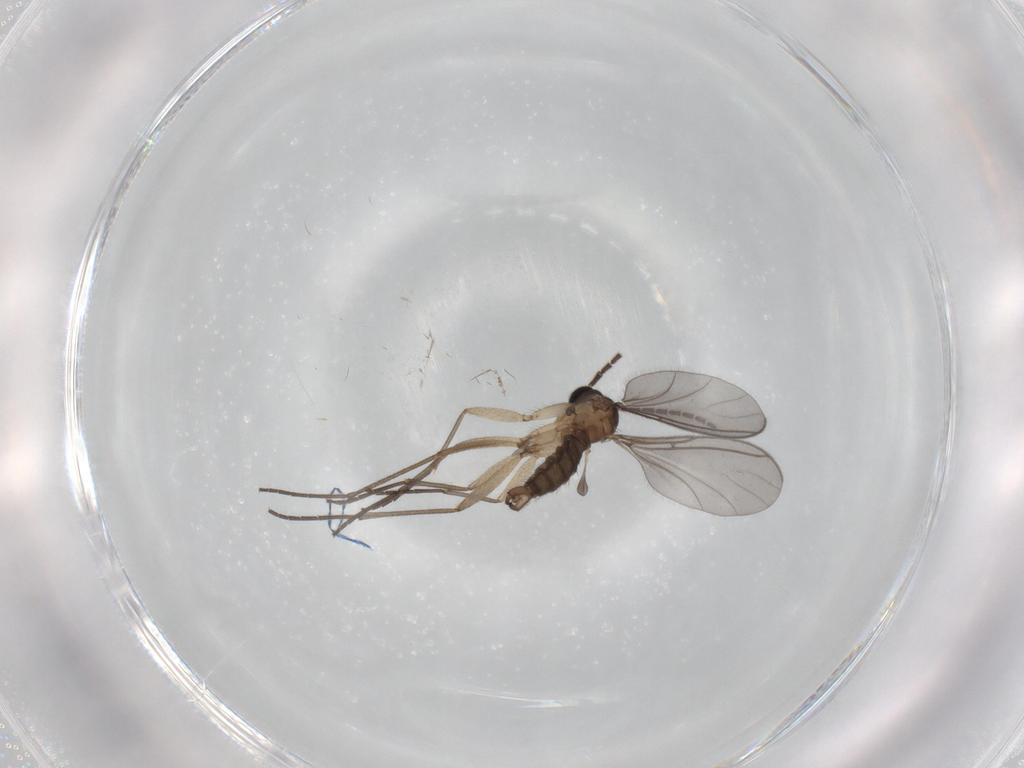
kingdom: Animalia
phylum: Arthropoda
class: Insecta
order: Diptera
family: Sciaridae
